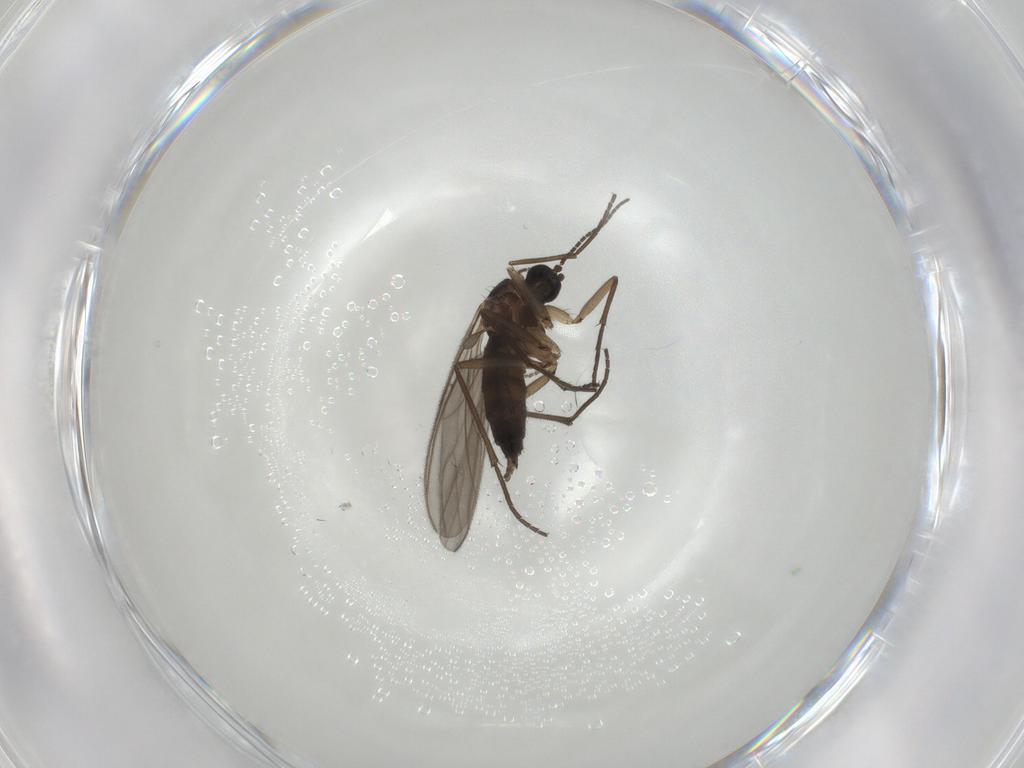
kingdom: Animalia
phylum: Arthropoda
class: Insecta
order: Diptera
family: Sciaridae
